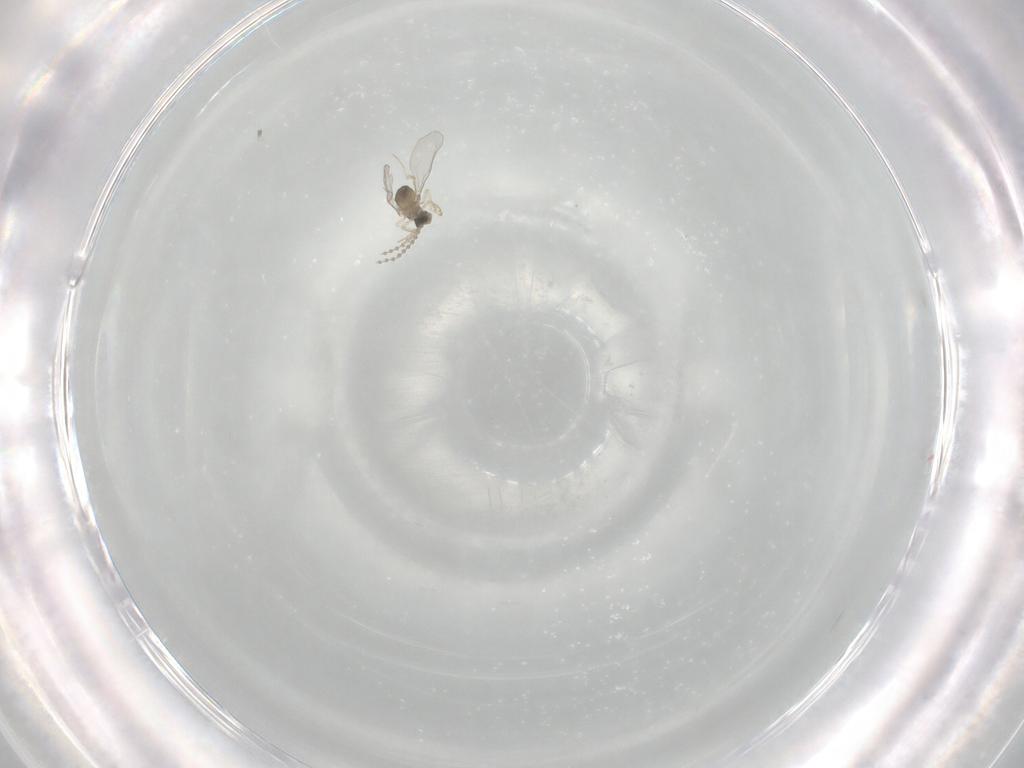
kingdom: Animalia
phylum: Arthropoda
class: Insecta
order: Diptera
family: Cecidomyiidae
